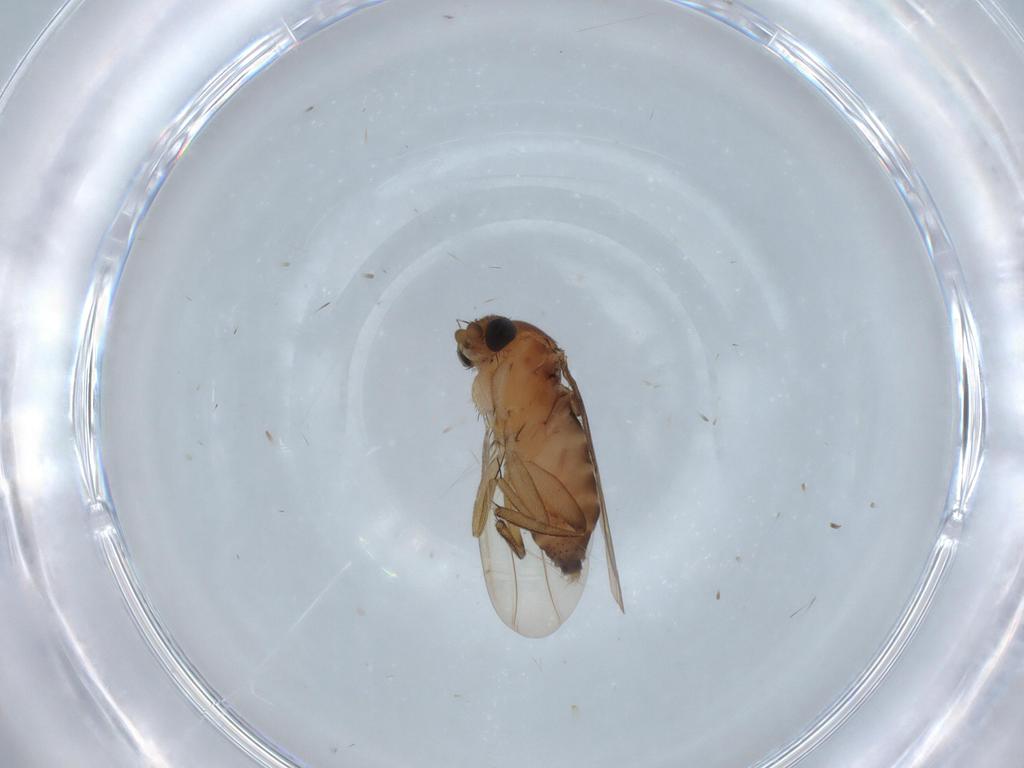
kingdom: Animalia
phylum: Arthropoda
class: Insecta
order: Diptera
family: Phoridae
